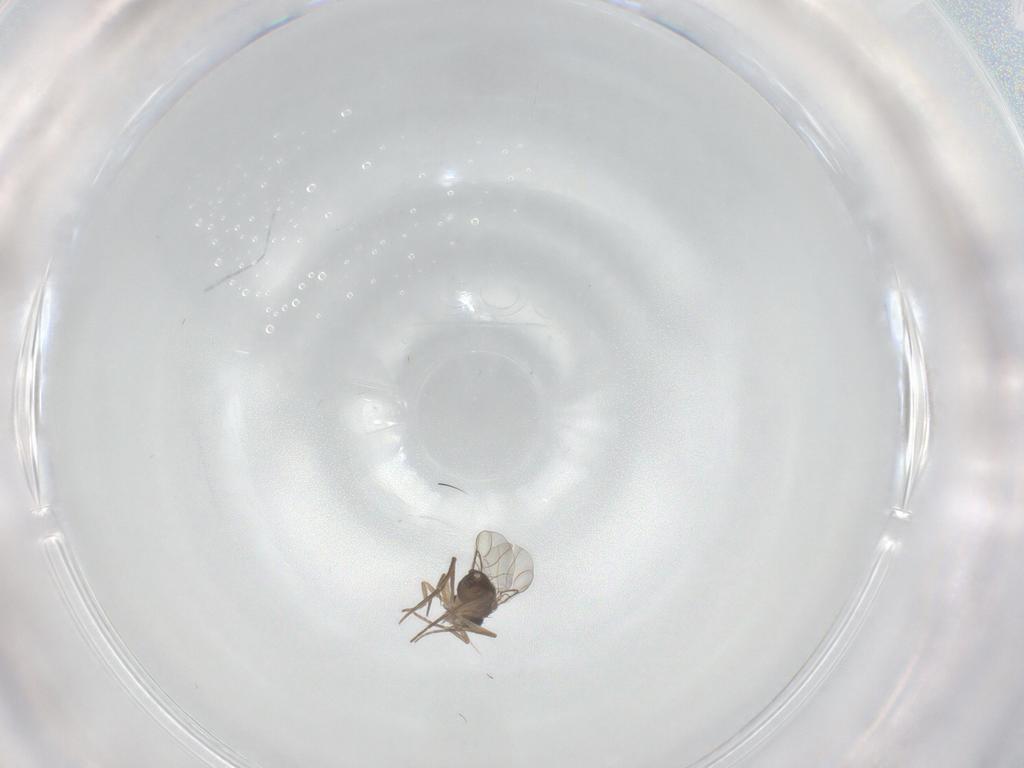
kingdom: Animalia
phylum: Arthropoda
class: Insecta
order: Diptera
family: Phoridae
